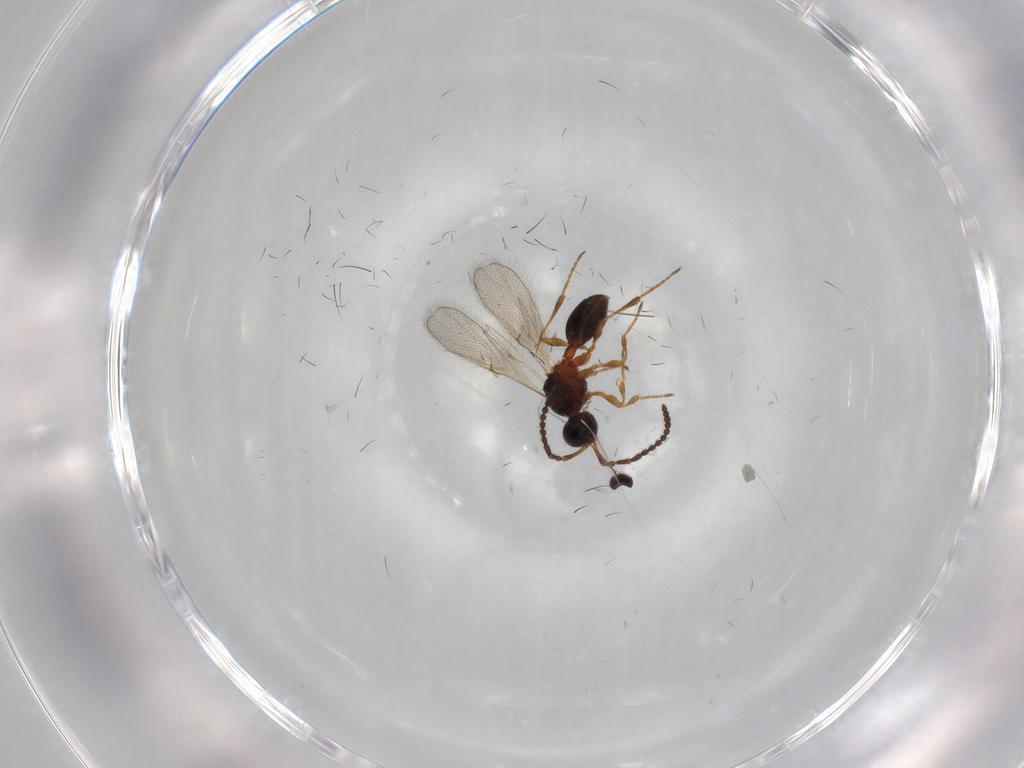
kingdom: Animalia
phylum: Arthropoda
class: Insecta
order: Hymenoptera
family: Diapriidae
